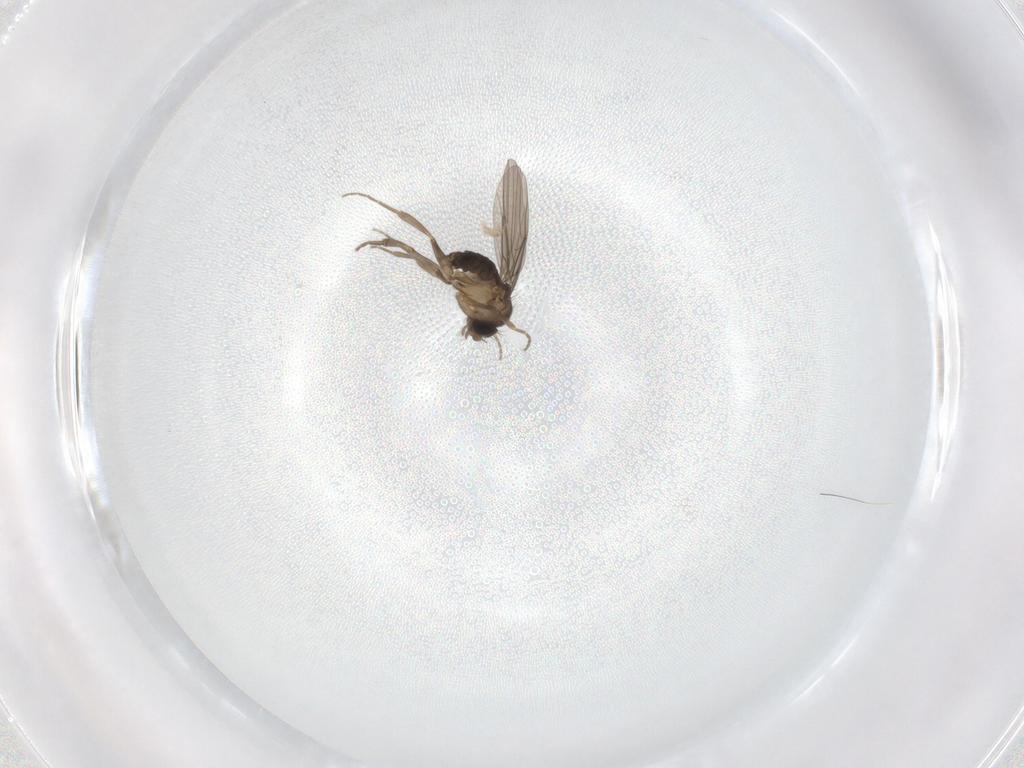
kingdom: Animalia
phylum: Arthropoda
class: Insecta
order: Diptera
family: Phoridae
